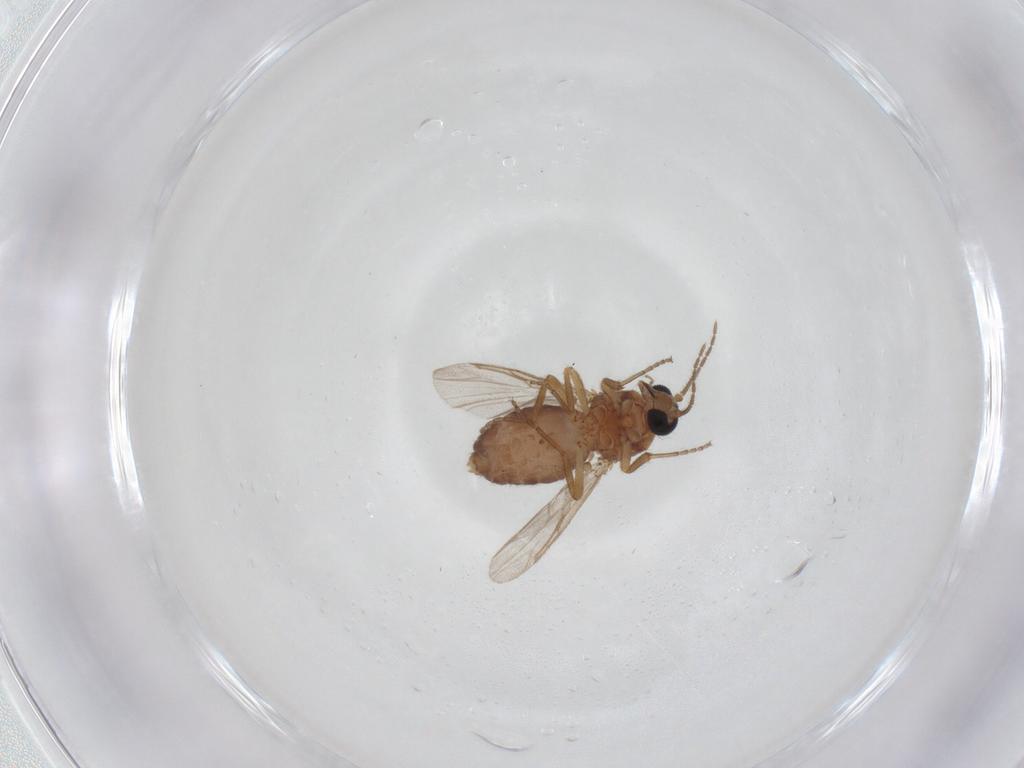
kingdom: Animalia
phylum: Arthropoda
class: Insecta
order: Diptera
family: Ceratopogonidae
